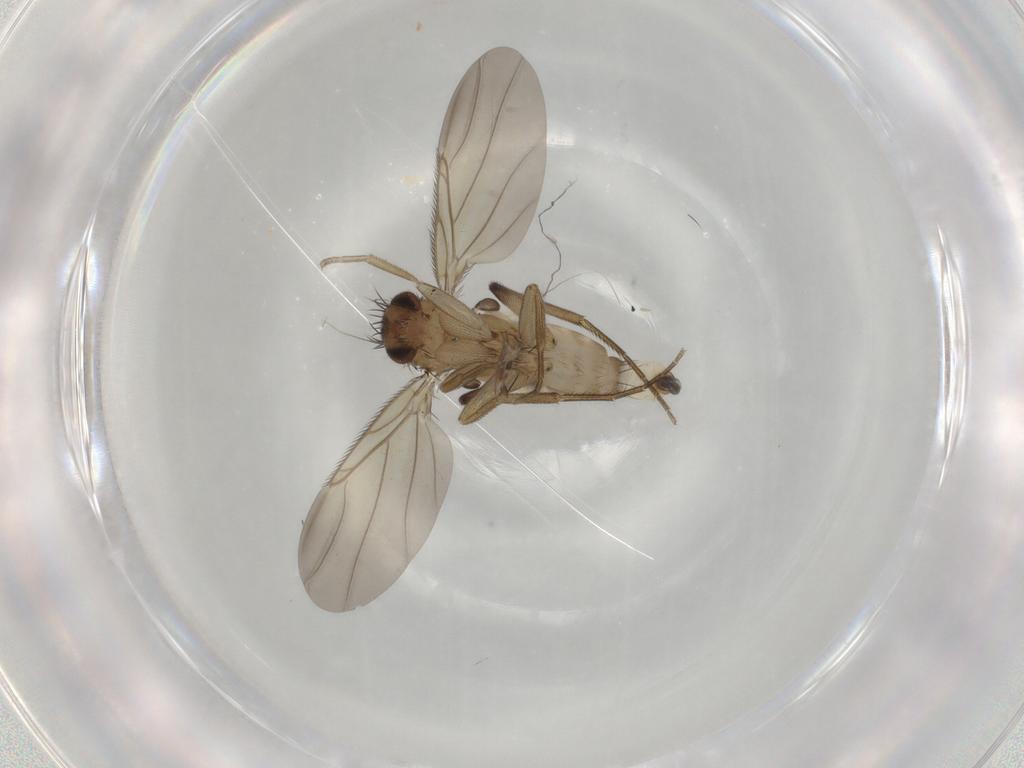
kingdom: Animalia
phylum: Arthropoda
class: Insecta
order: Diptera
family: Phoridae
